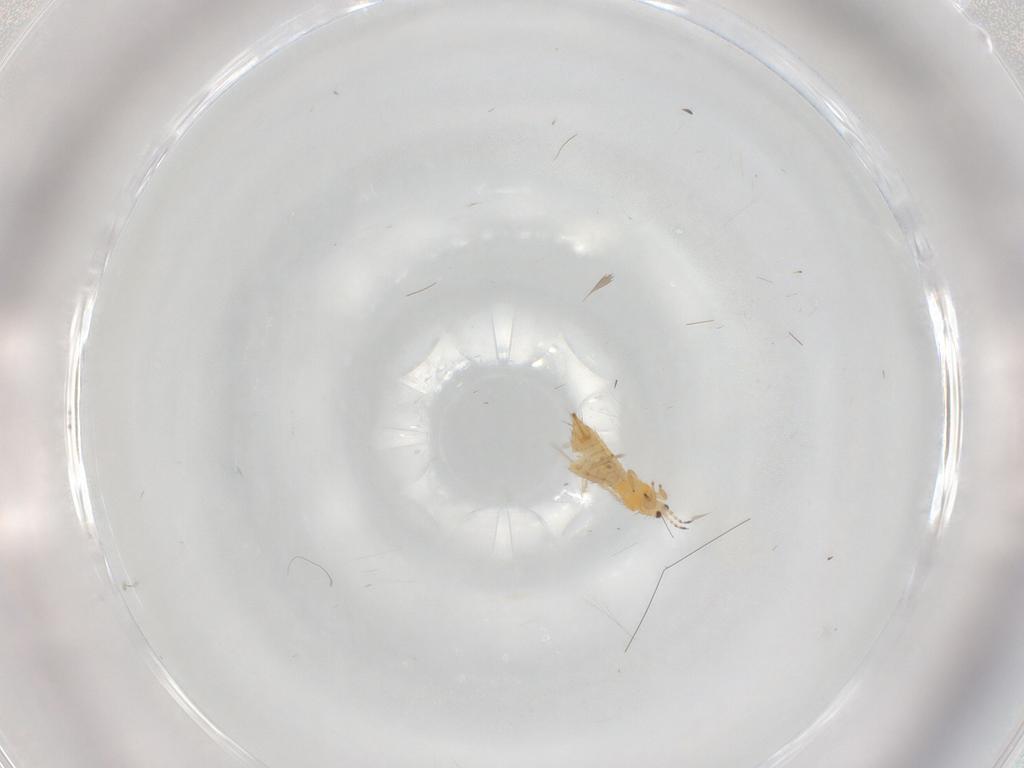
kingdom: Animalia
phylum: Arthropoda
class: Insecta
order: Thysanoptera
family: Thripidae
